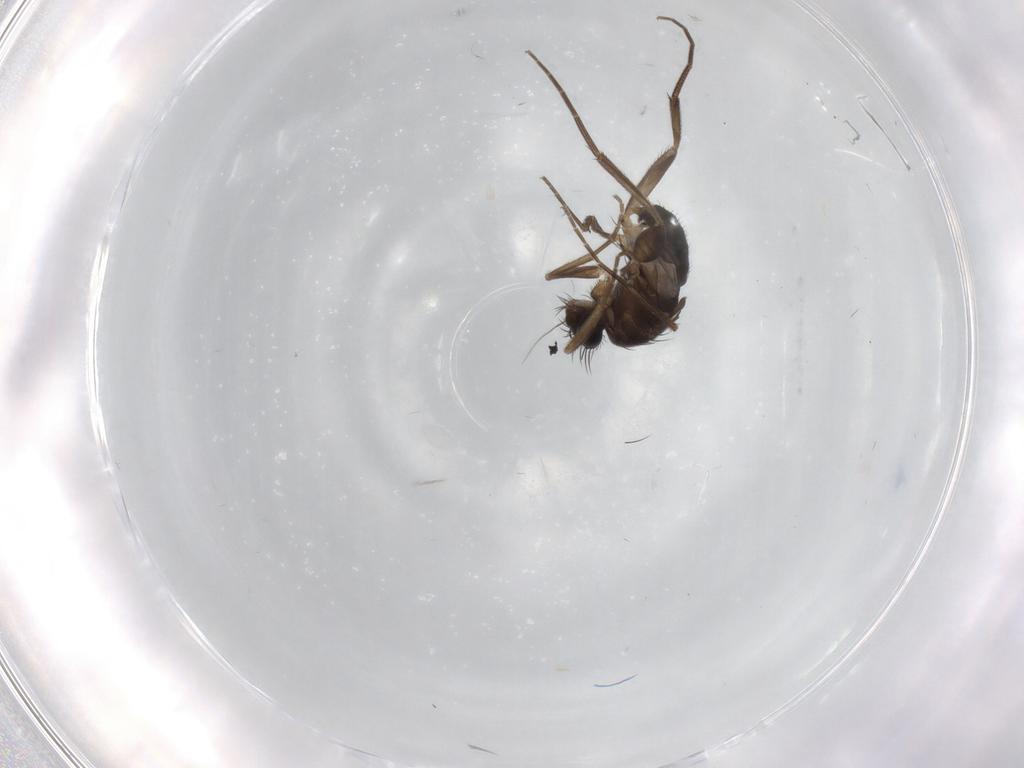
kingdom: Animalia
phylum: Arthropoda
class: Insecta
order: Diptera
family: Phoridae
